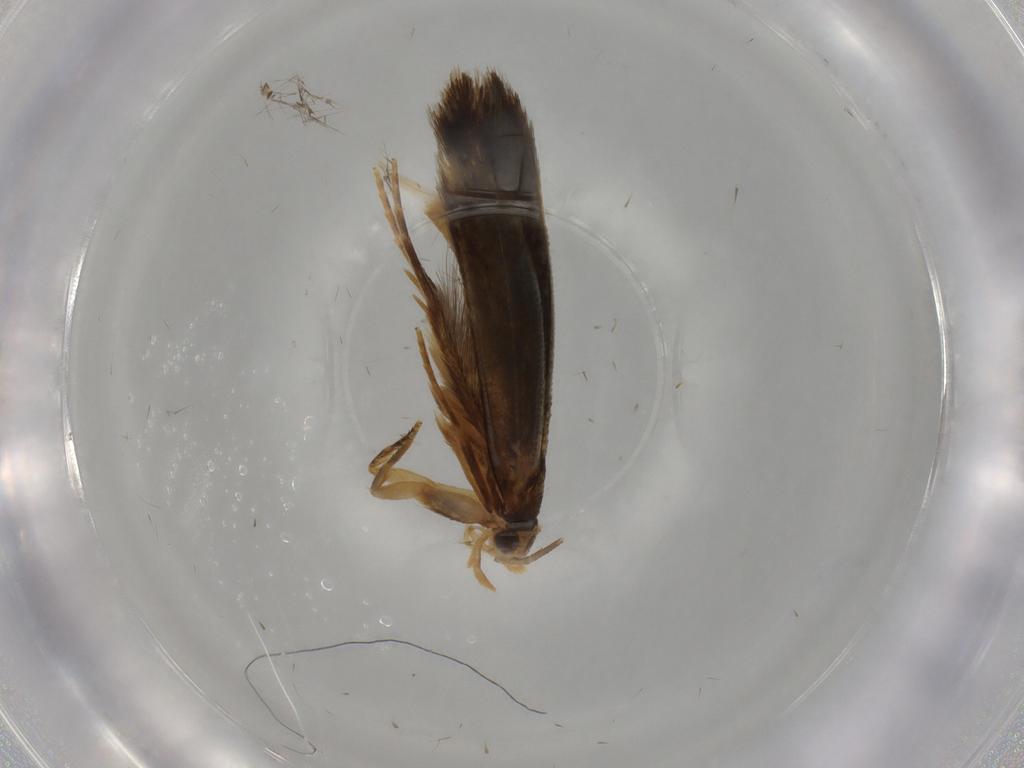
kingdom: Animalia
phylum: Arthropoda
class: Insecta
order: Lepidoptera
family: Tineidae
